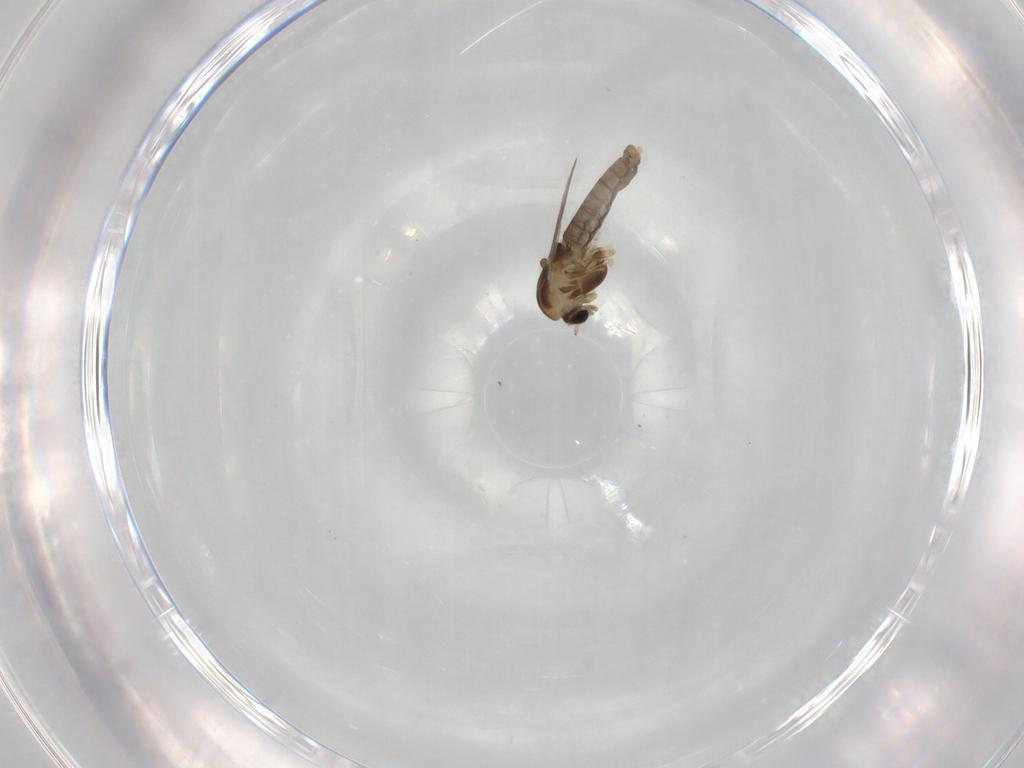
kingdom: Animalia
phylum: Arthropoda
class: Insecta
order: Diptera
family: Chironomidae
